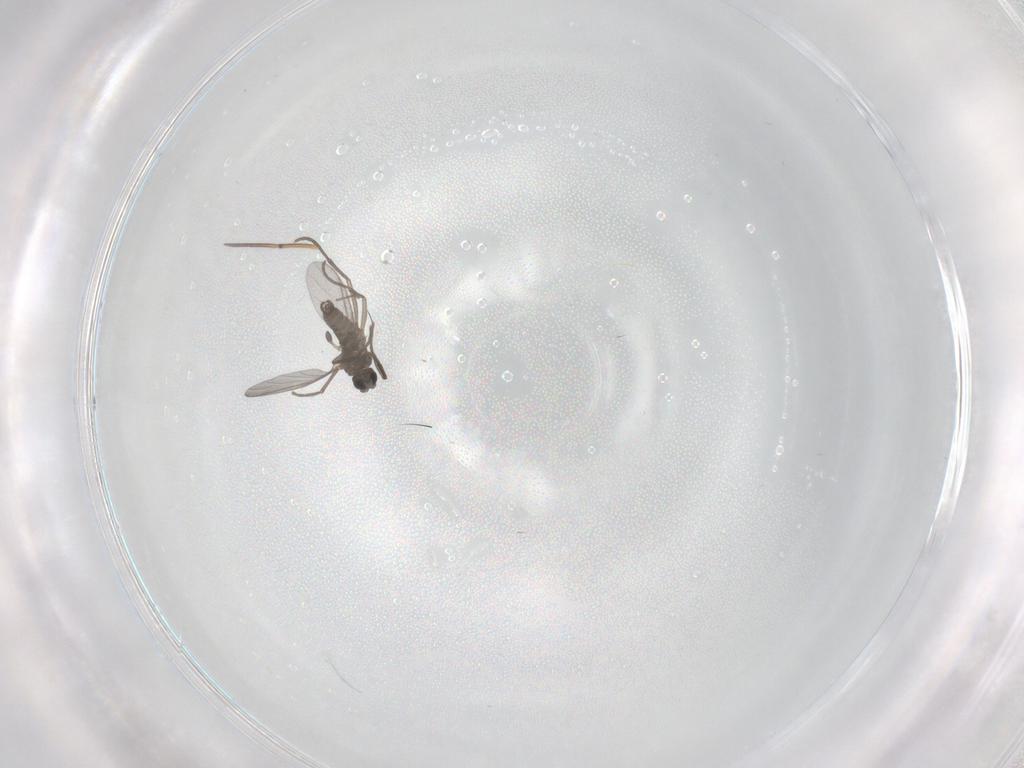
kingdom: Animalia
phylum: Arthropoda
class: Insecta
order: Diptera
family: Sciaridae
